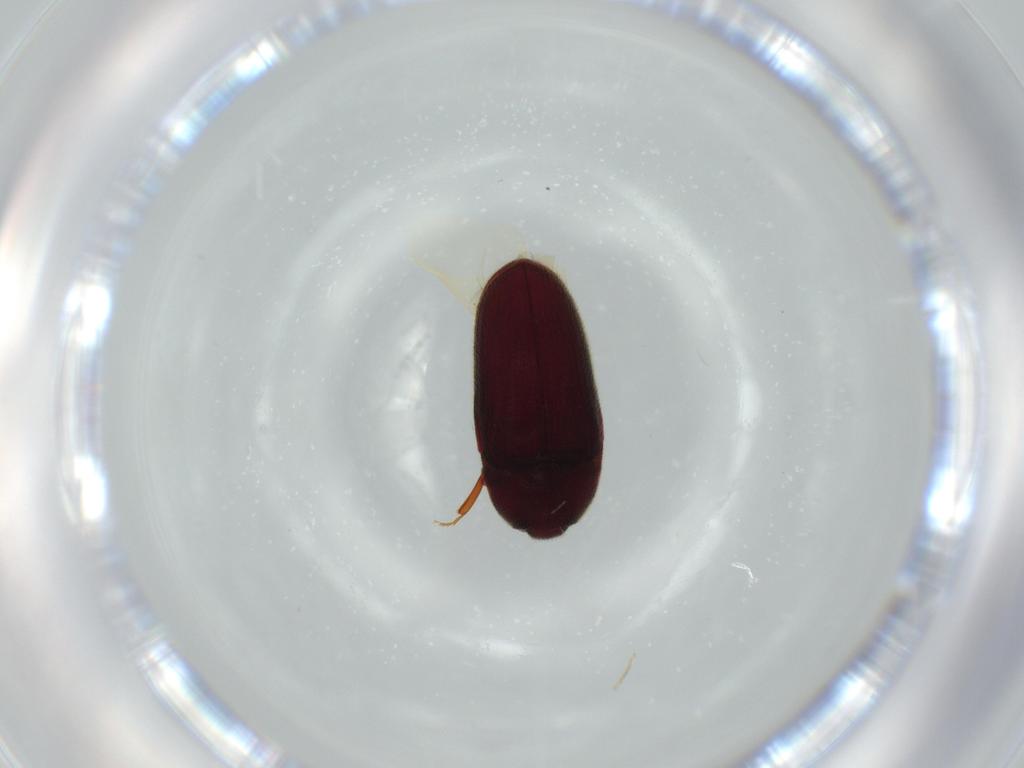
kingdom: Animalia
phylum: Arthropoda
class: Insecta
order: Coleoptera
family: Throscidae
